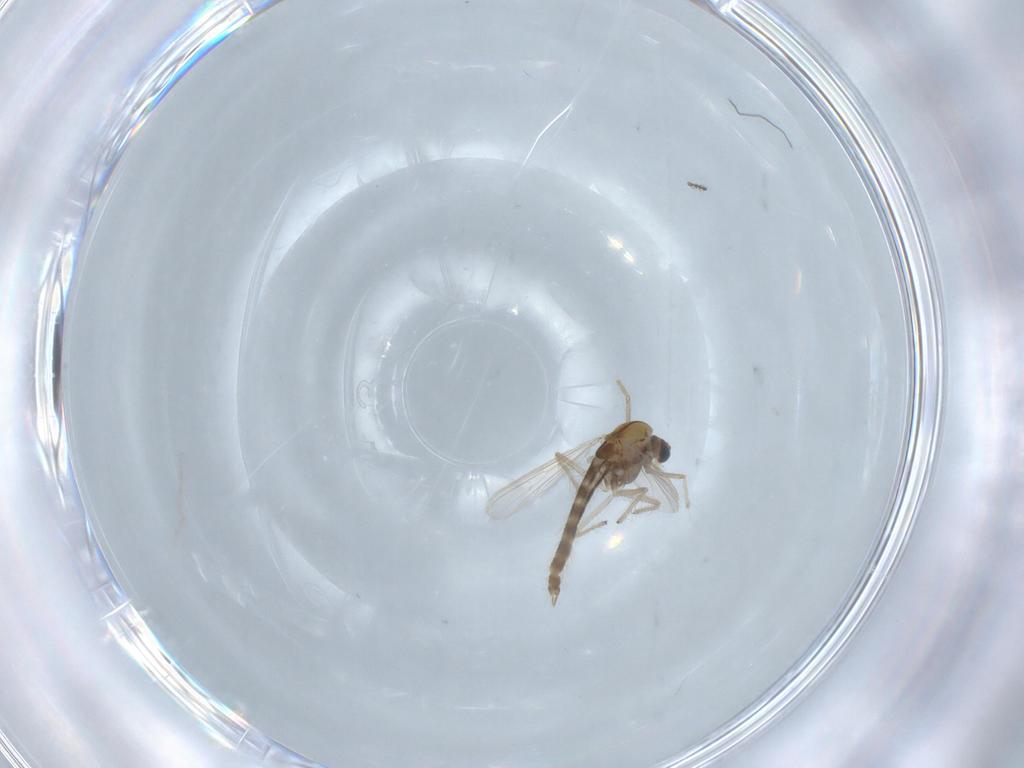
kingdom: Animalia
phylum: Arthropoda
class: Insecta
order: Diptera
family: Chironomidae
